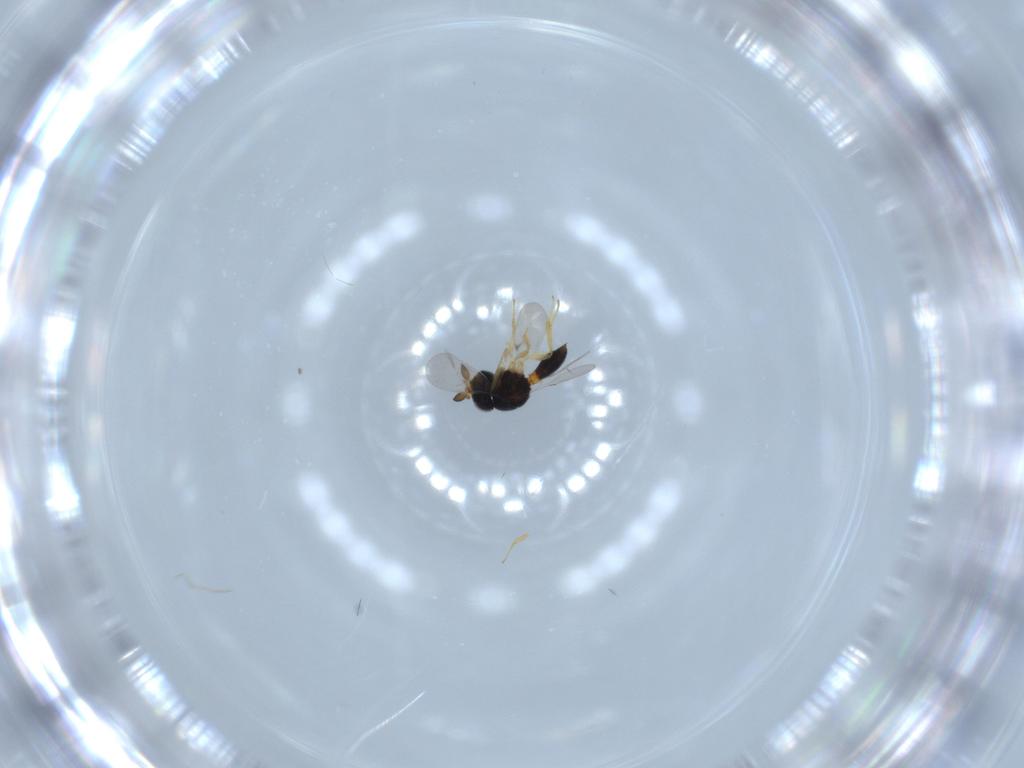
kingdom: Animalia
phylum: Arthropoda
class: Insecta
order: Hymenoptera
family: Scelionidae
